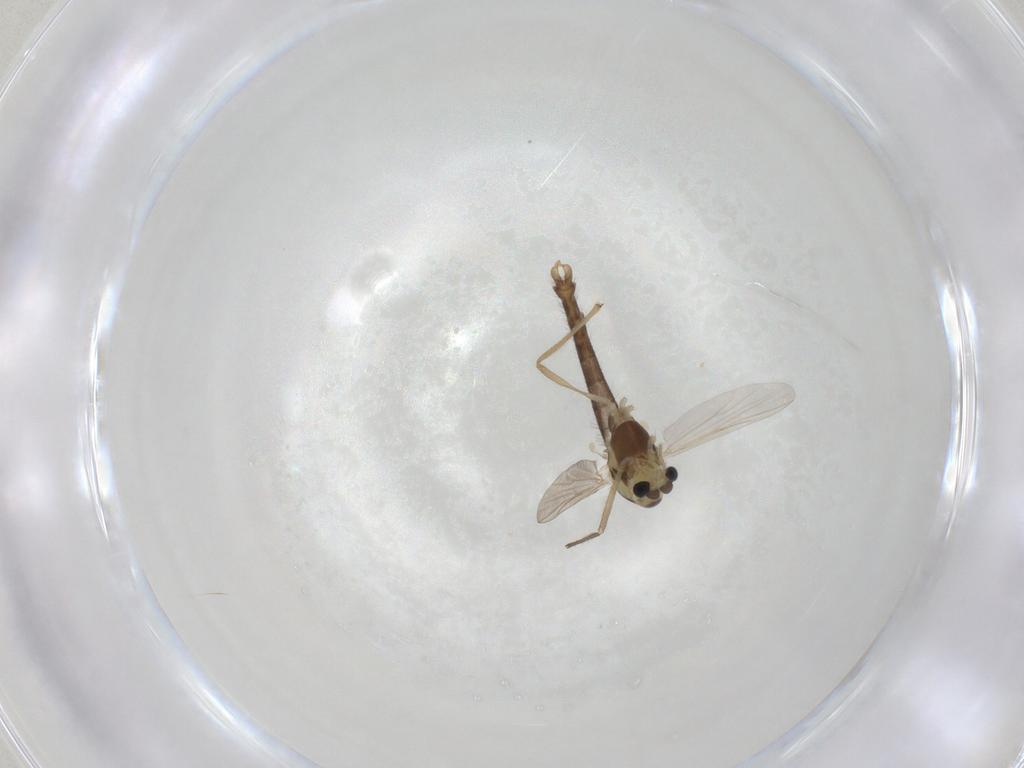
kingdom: Animalia
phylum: Arthropoda
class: Insecta
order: Diptera
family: Chironomidae
